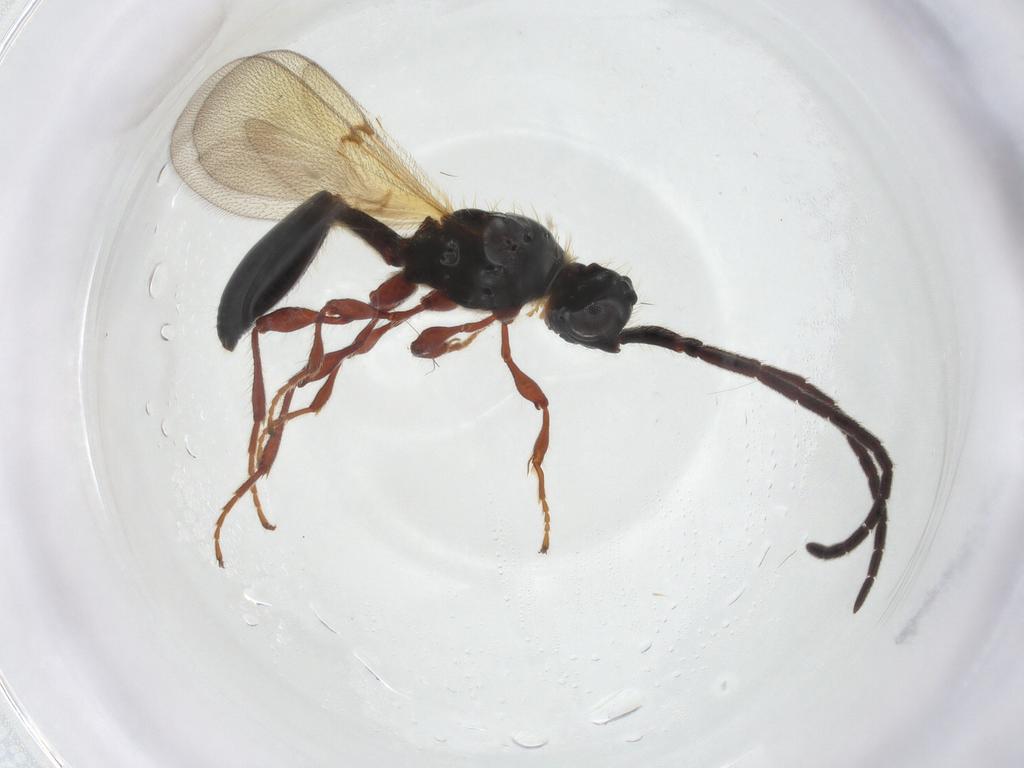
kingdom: Animalia
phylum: Arthropoda
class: Insecta
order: Hymenoptera
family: Diapriidae
